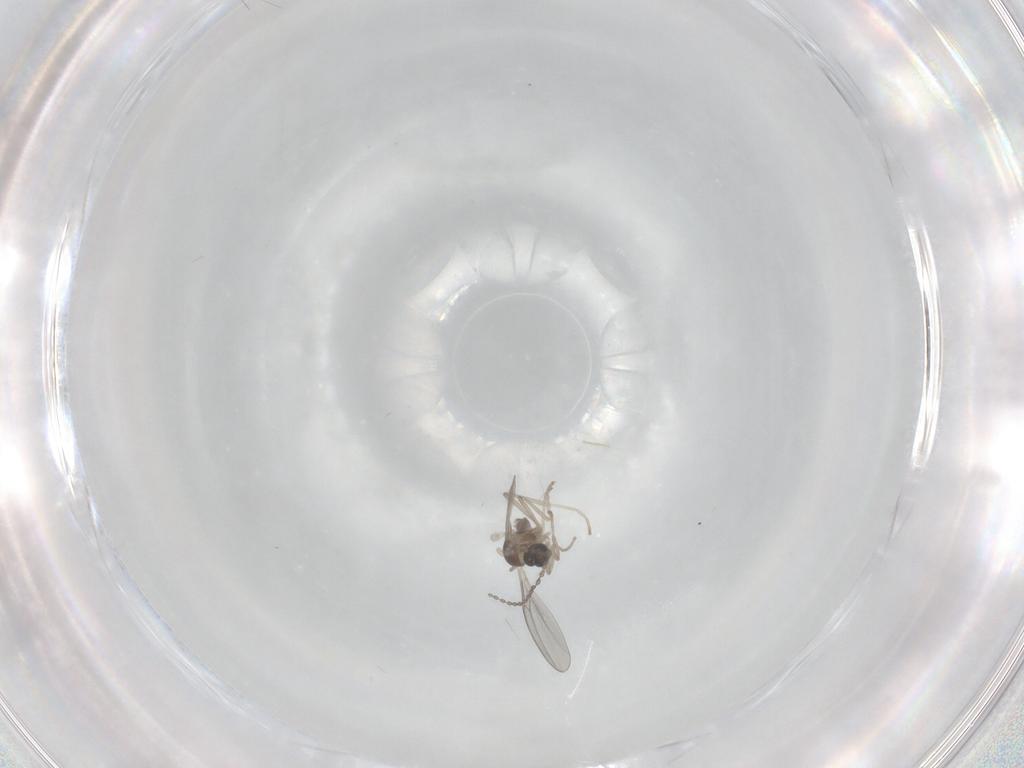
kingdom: Animalia
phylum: Arthropoda
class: Insecta
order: Diptera
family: Cecidomyiidae
